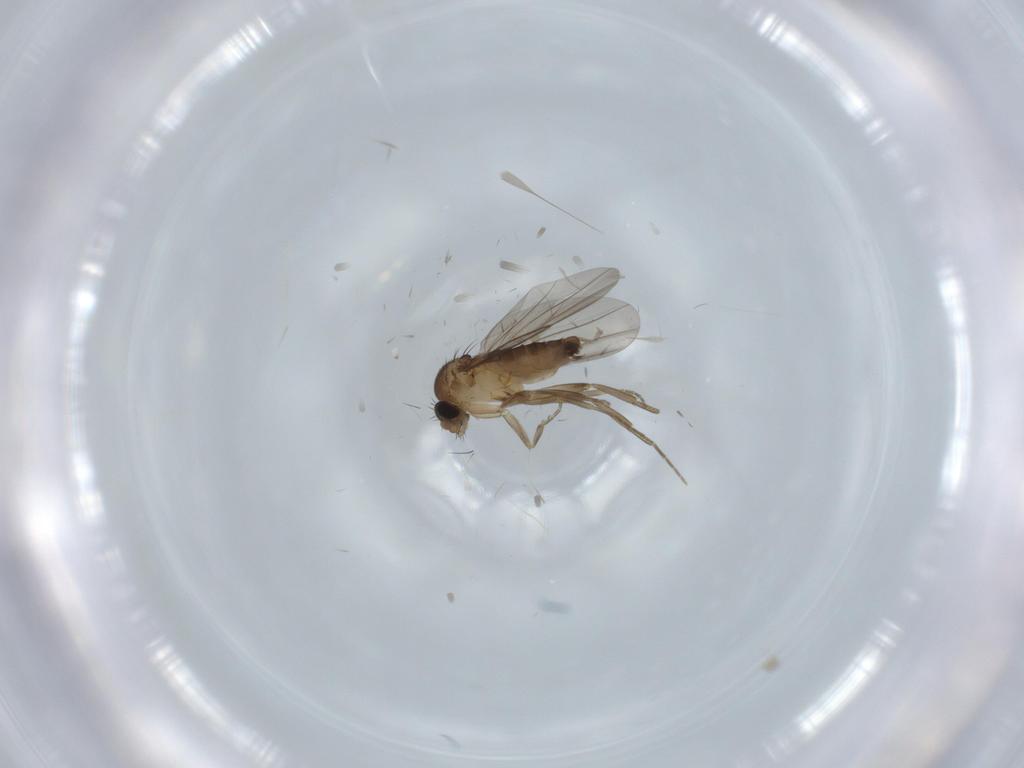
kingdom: Animalia
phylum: Arthropoda
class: Insecta
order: Diptera
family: Phoridae
